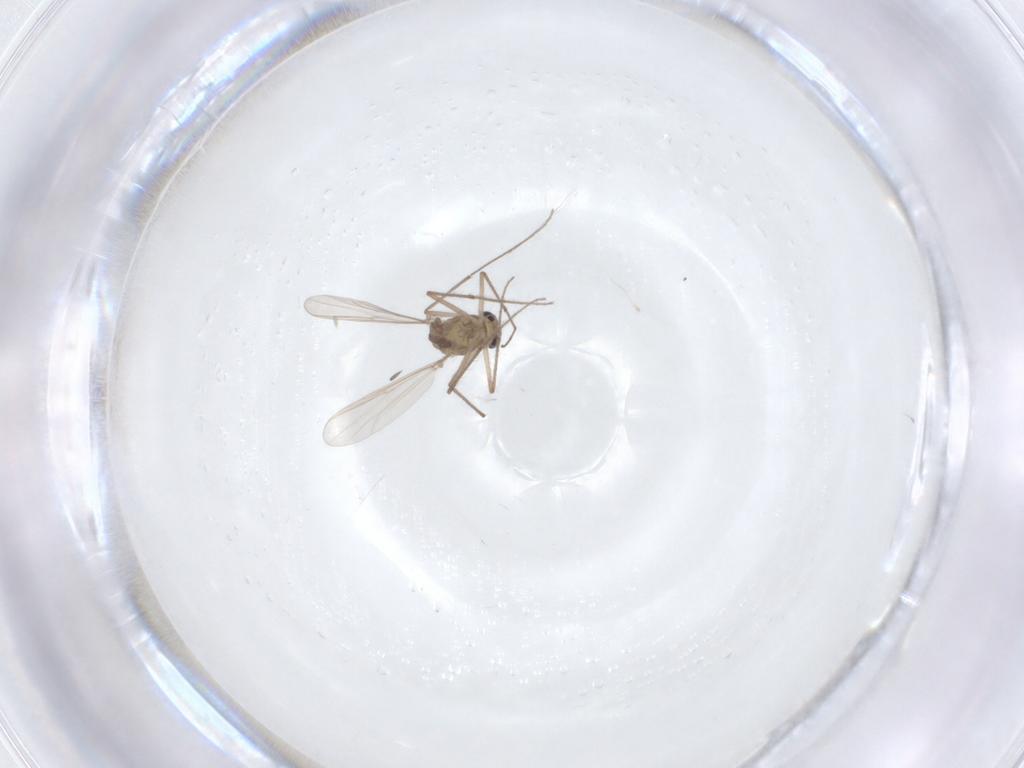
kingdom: Animalia
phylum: Arthropoda
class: Insecta
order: Diptera
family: Chironomidae
